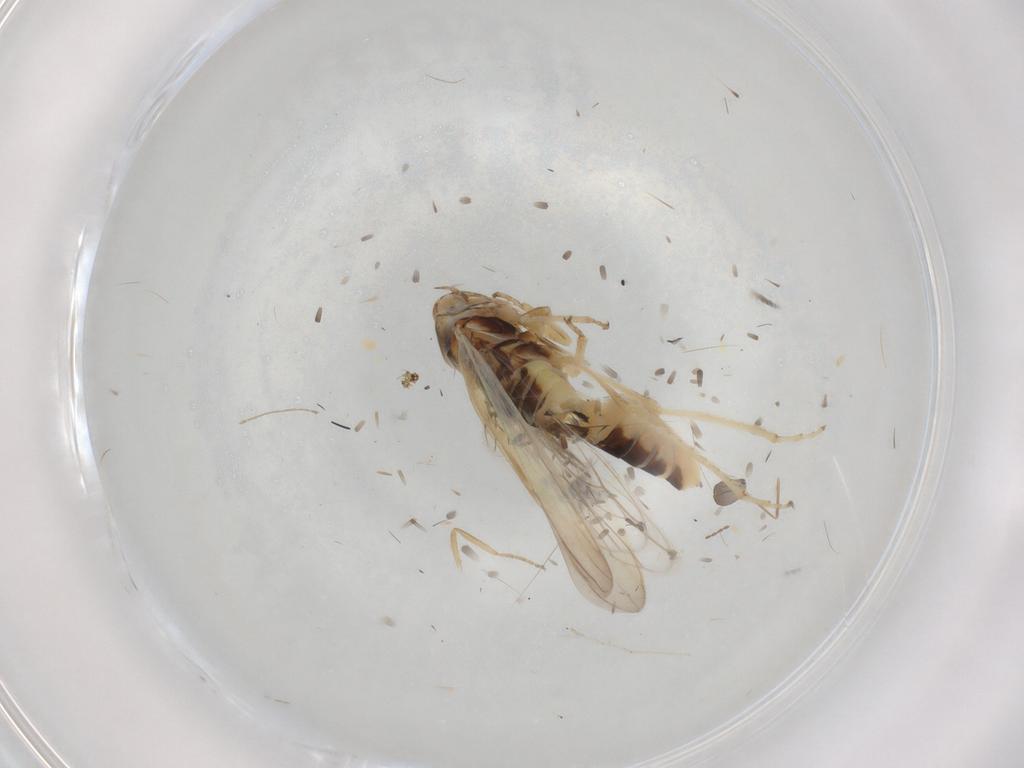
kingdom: Animalia
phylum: Arthropoda
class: Insecta
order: Hemiptera
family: Cicadellidae
